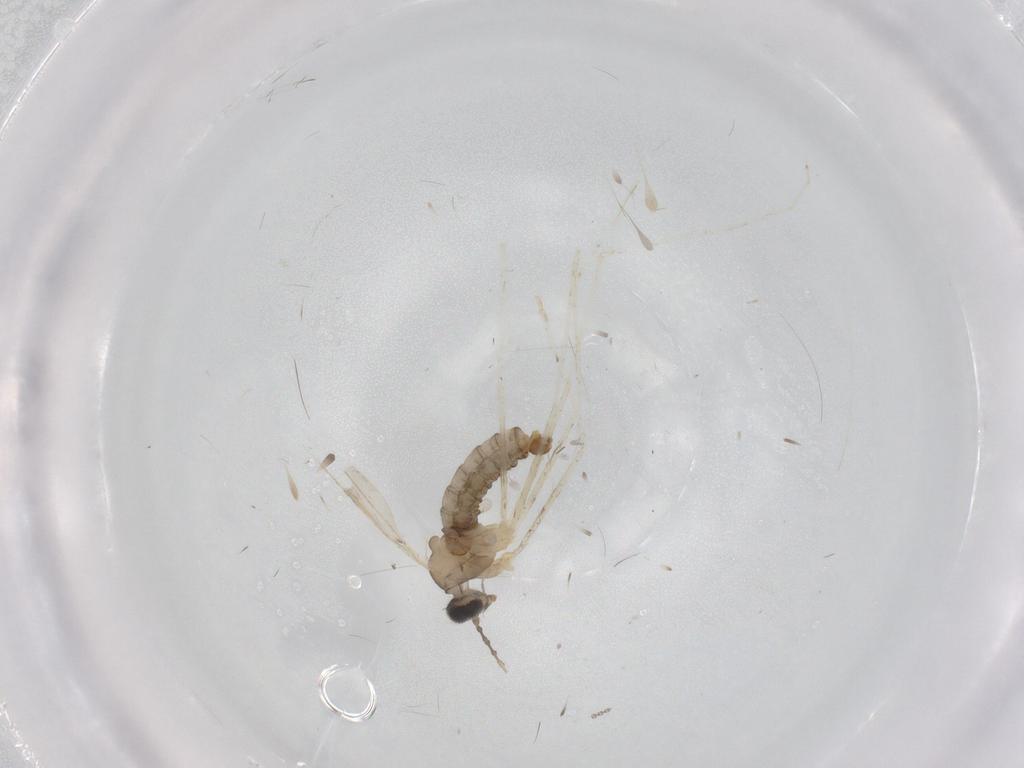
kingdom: Animalia
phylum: Arthropoda
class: Insecta
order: Diptera
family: Cecidomyiidae
